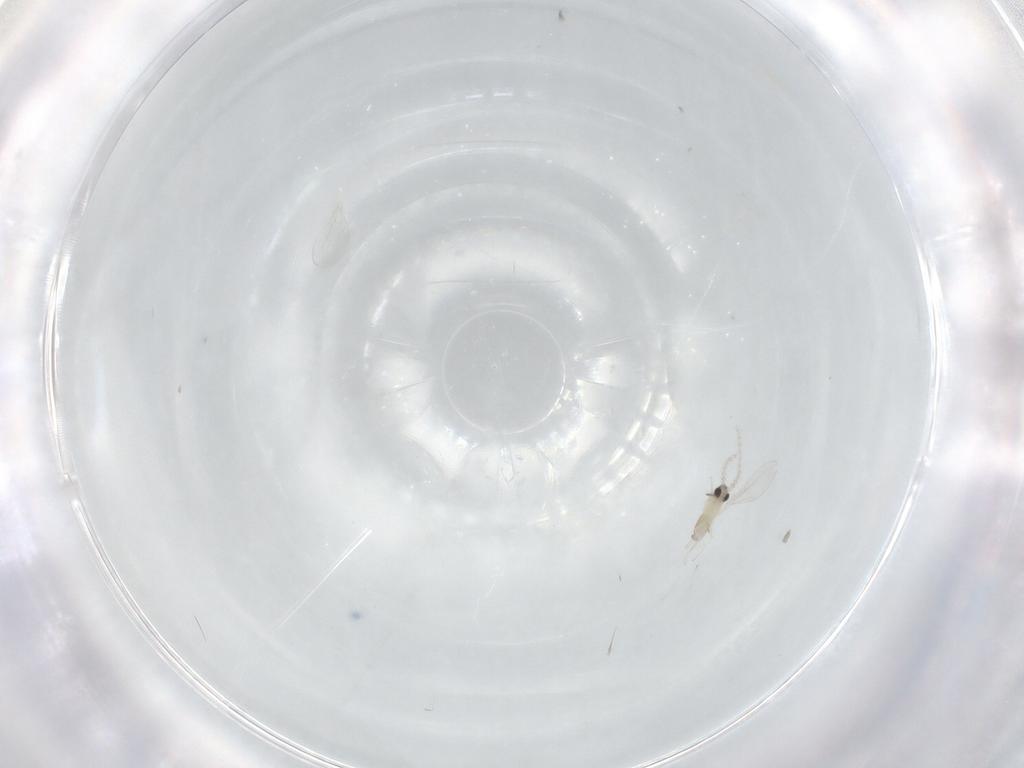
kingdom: Animalia
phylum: Arthropoda
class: Insecta
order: Diptera
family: Cecidomyiidae
